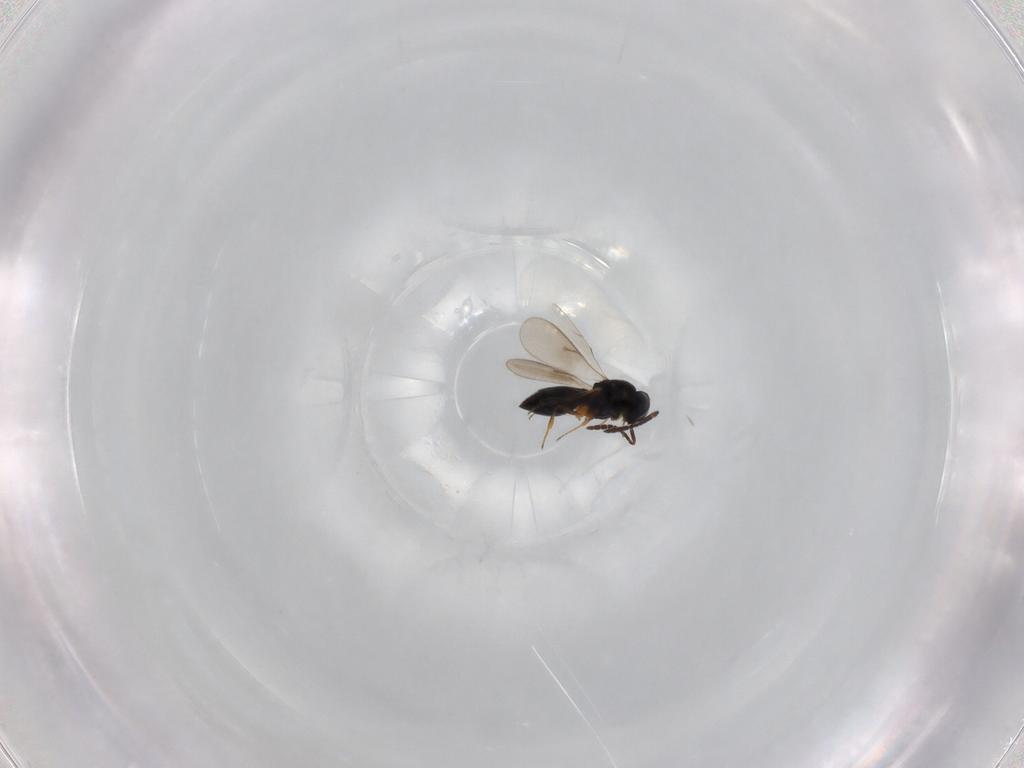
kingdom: Animalia
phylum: Arthropoda
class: Insecta
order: Hymenoptera
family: Scelionidae
